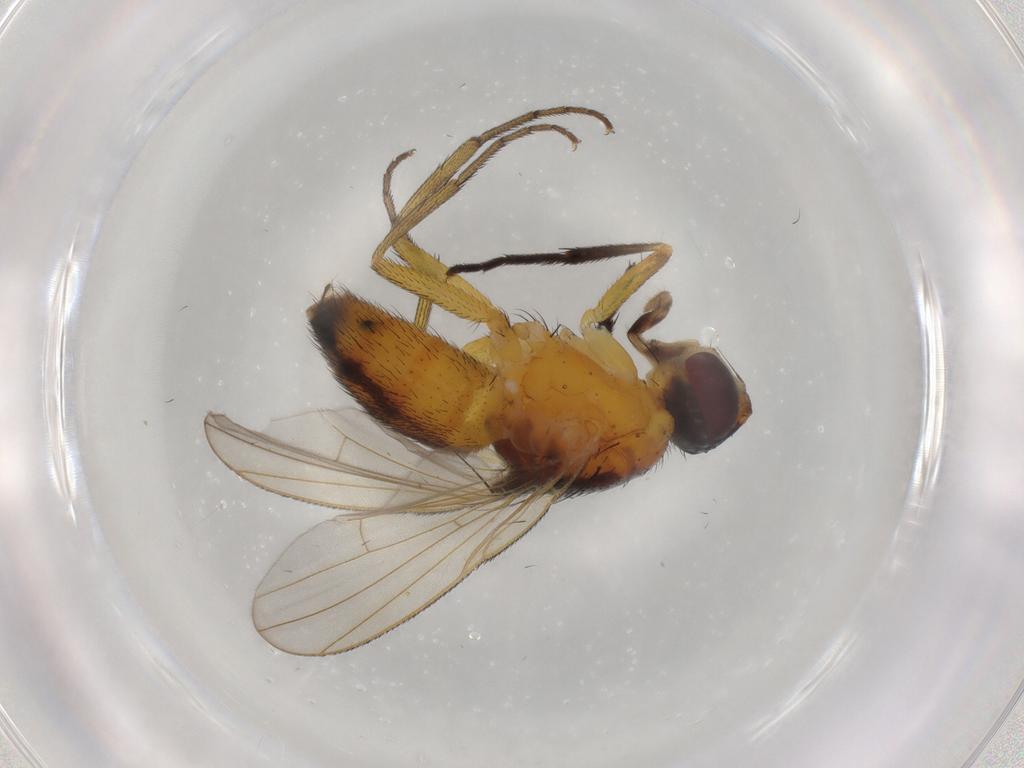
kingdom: Animalia
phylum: Arthropoda
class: Insecta
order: Diptera
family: Muscidae
